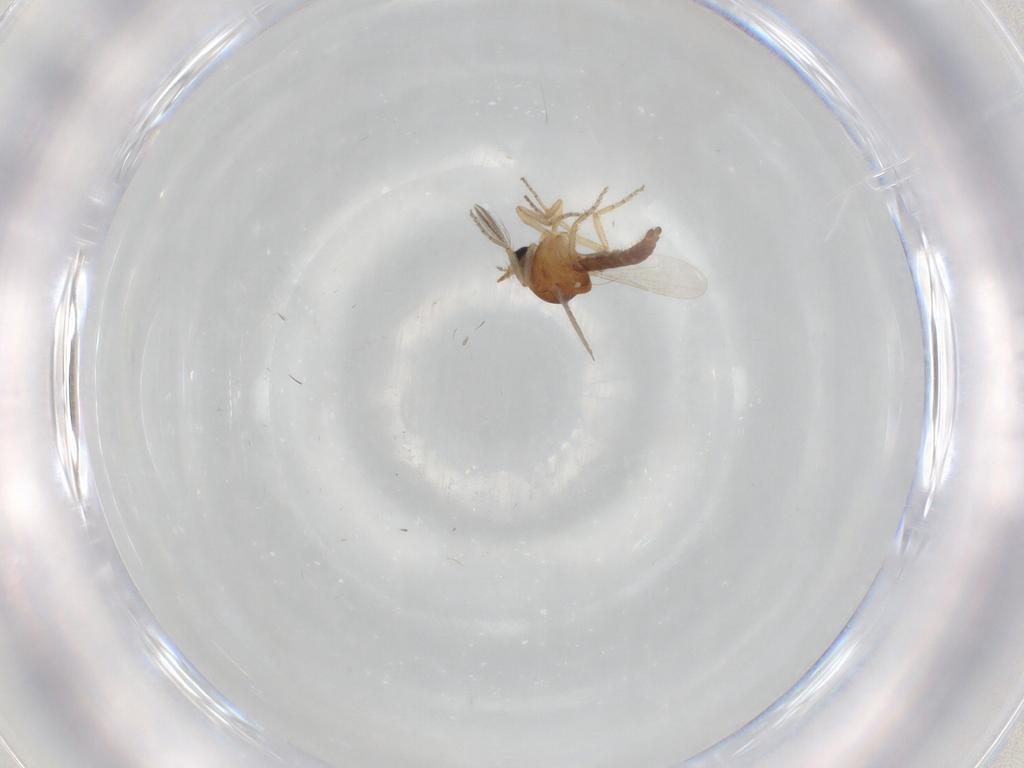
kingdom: Animalia
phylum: Arthropoda
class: Insecta
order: Diptera
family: Ceratopogonidae
